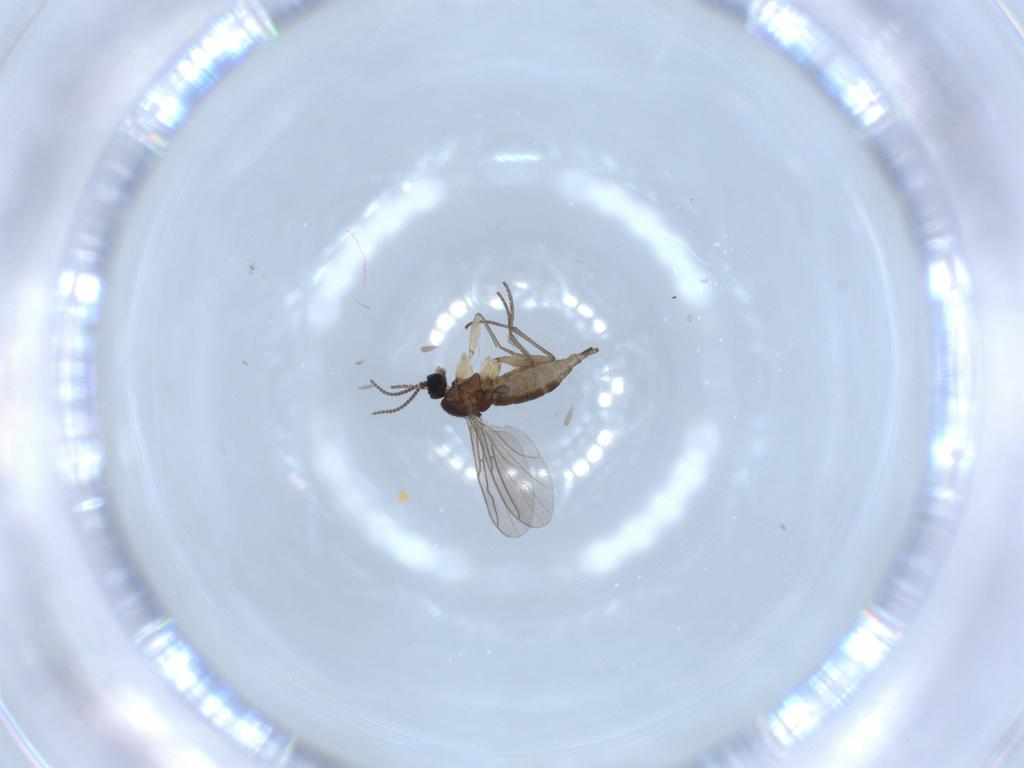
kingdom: Animalia
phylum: Arthropoda
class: Insecta
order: Diptera
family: Sciaridae
